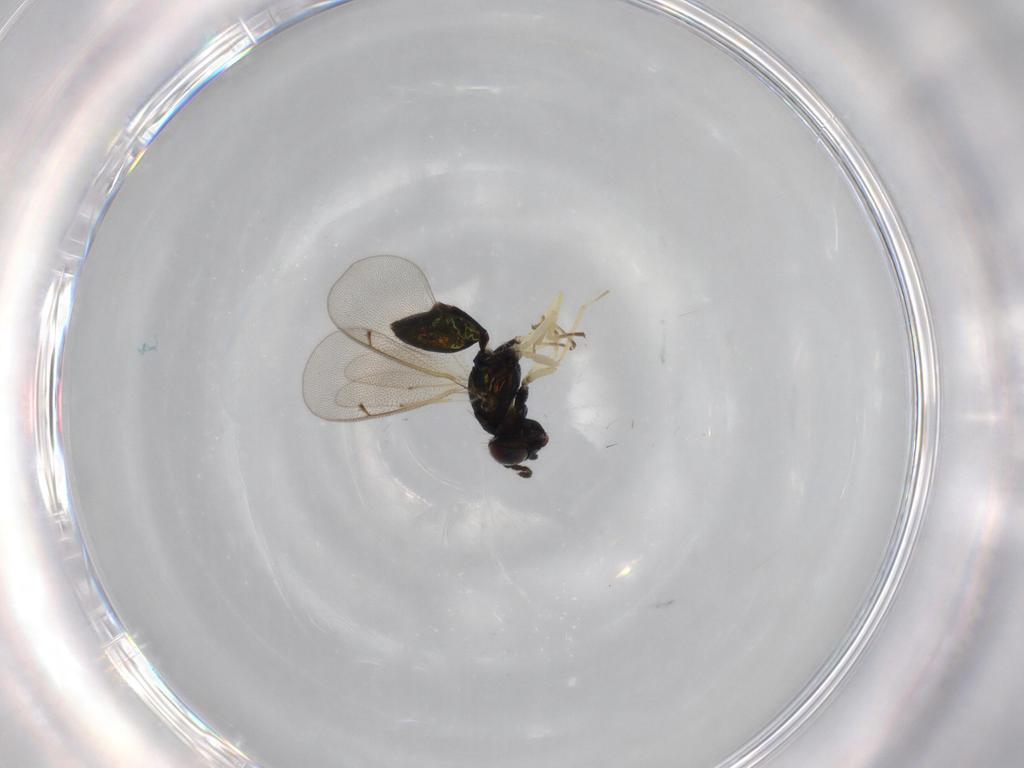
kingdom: Animalia
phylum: Arthropoda
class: Insecta
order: Hymenoptera
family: Eulophidae
